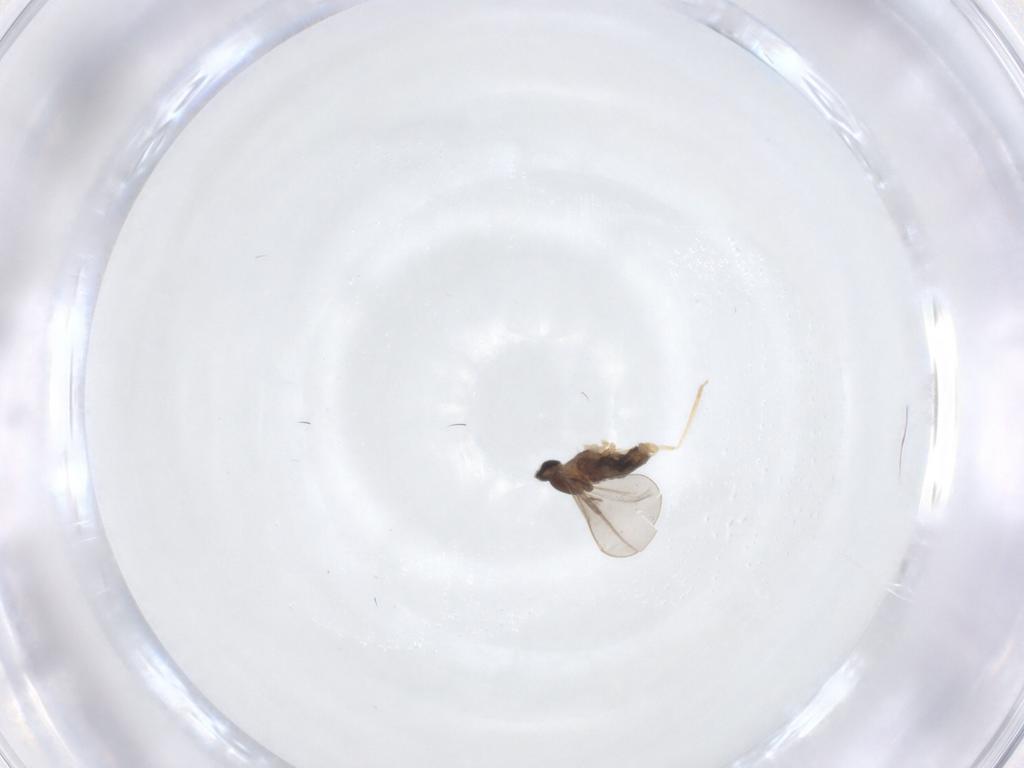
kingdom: Animalia
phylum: Arthropoda
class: Insecta
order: Diptera
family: Cecidomyiidae
